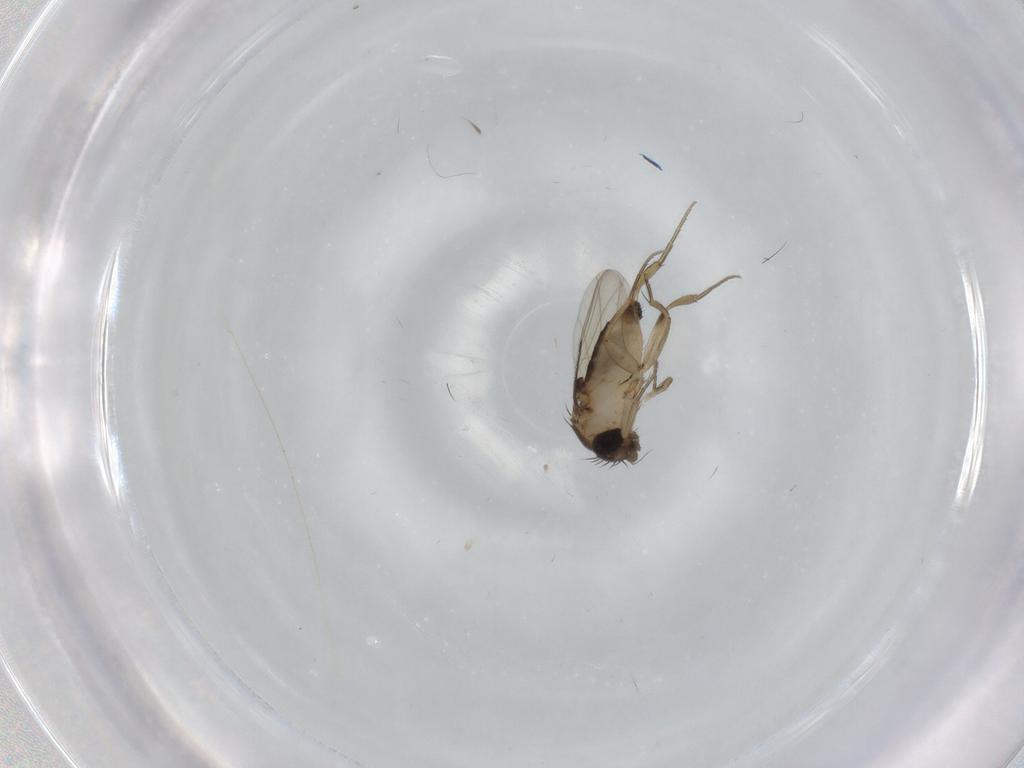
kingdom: Animalia
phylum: Arthropoda
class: Insecta
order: Diptera
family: Phoridae
